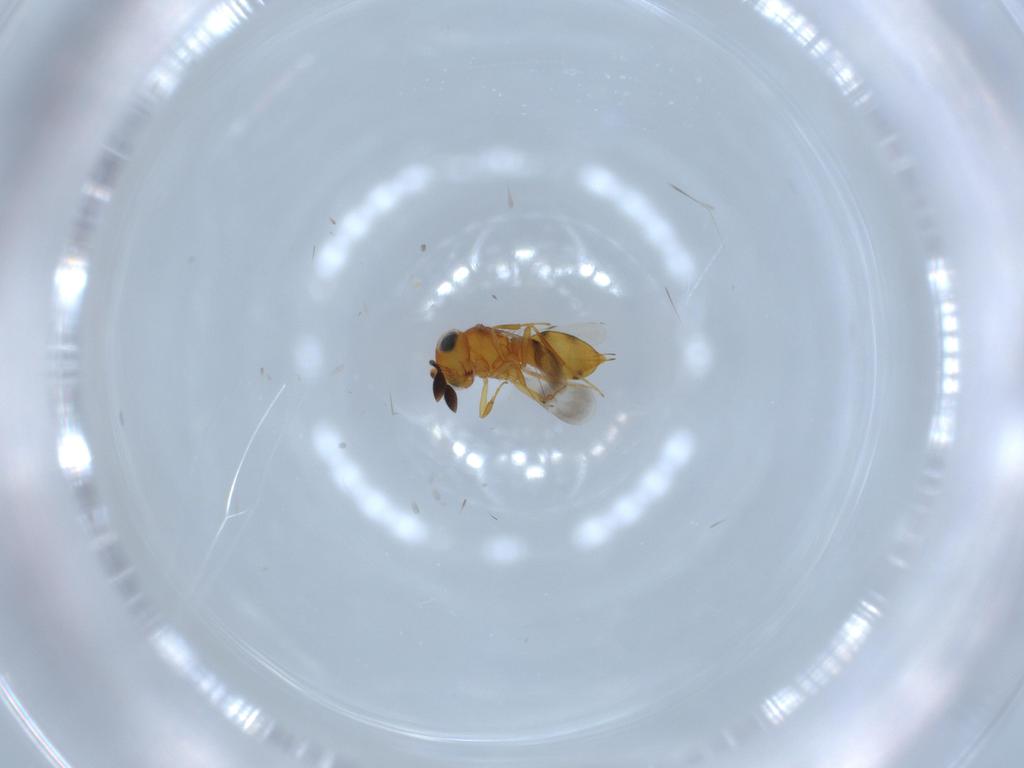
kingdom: Animalia
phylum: Arthropoda
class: Insecta
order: Hymenoptera
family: Scelionidae
